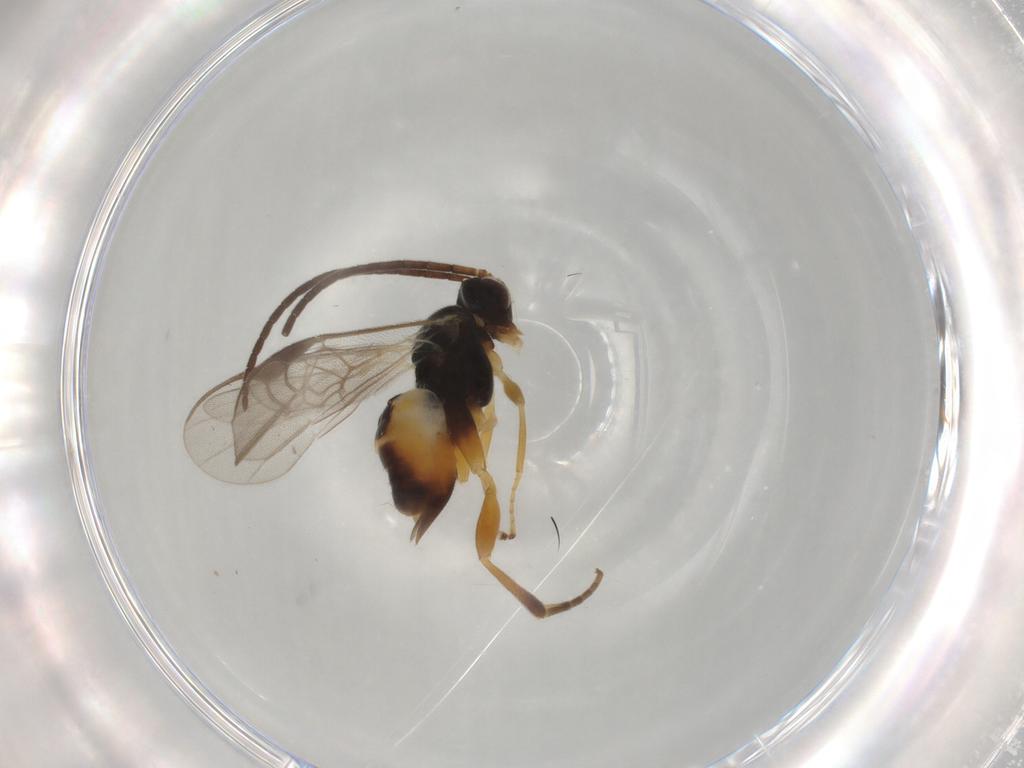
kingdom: Animalia
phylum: Arthropoda
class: Insecta
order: Hymenoptera
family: Braconidae
